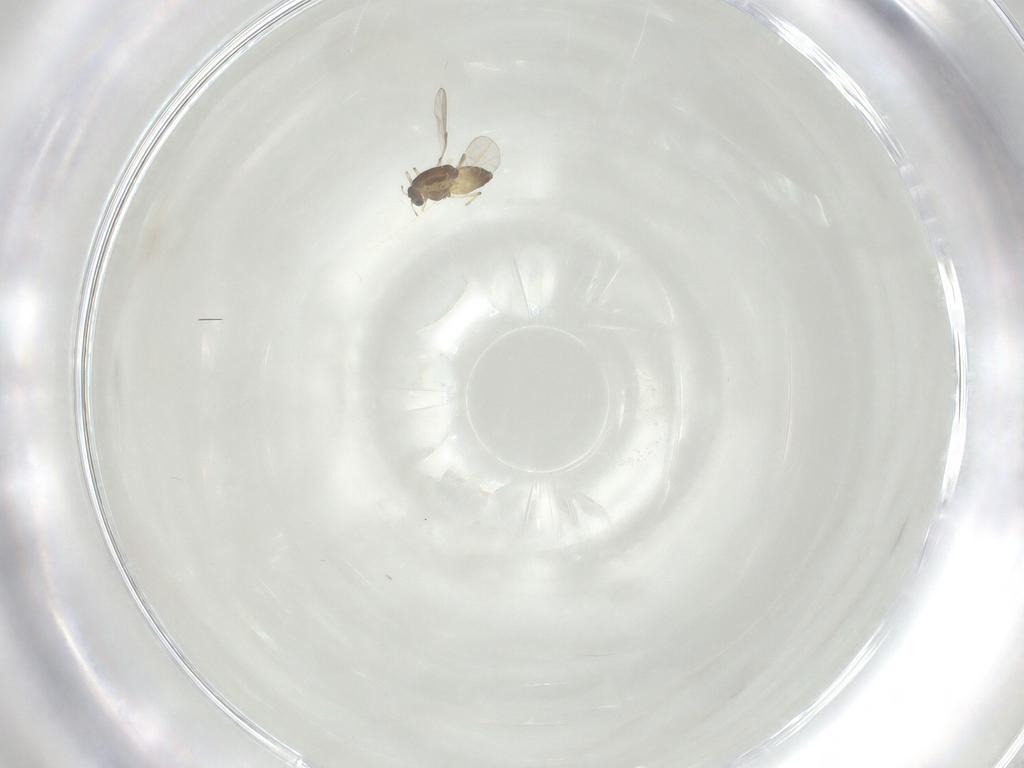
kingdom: Animalia
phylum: Arthropoda
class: Insecta
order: Diptera
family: Chironomidae
